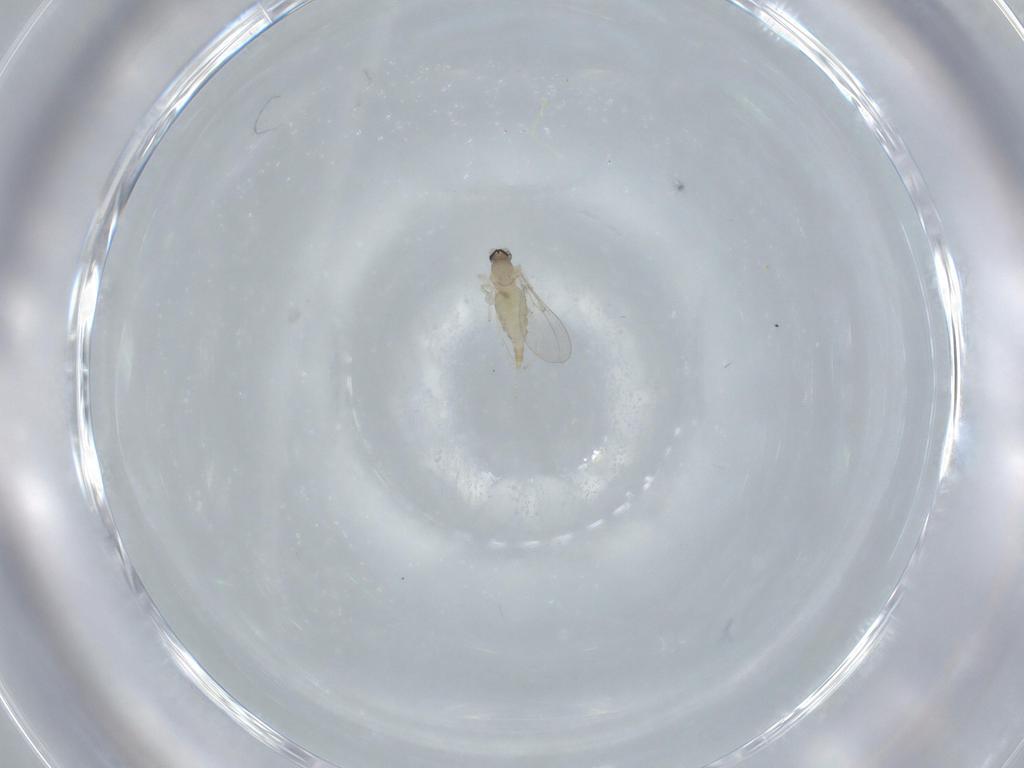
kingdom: Animalia
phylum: Arthropoda
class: Insecta
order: Diptera
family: Cecidomyiidae
